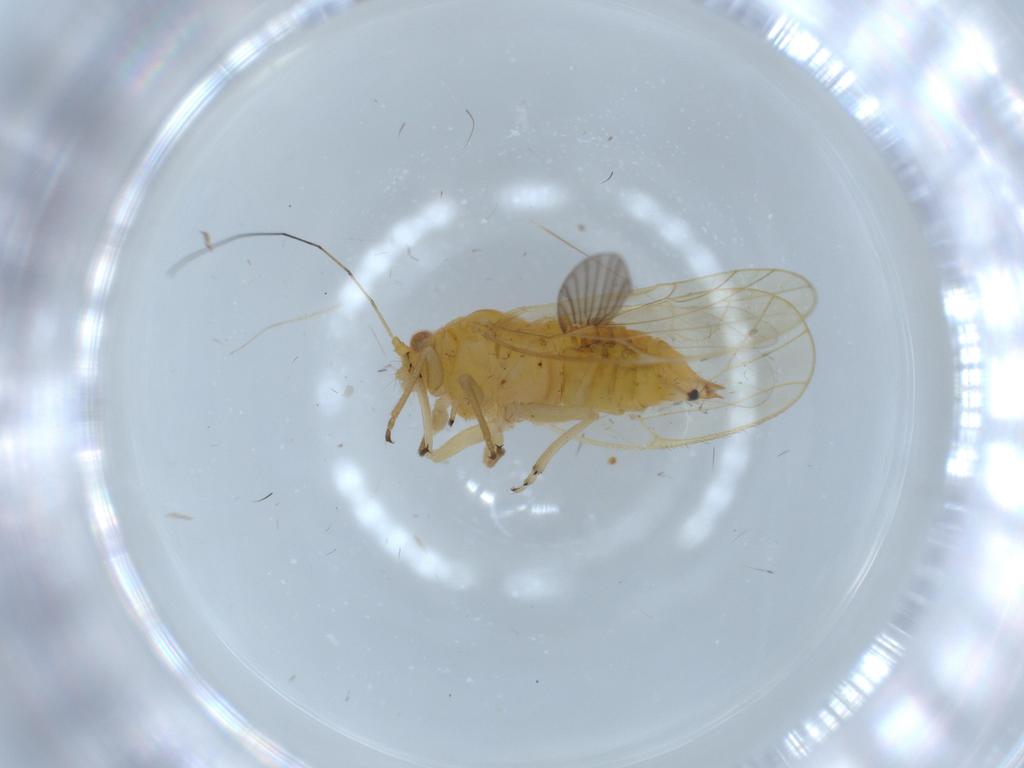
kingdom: Animalia
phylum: Arthropoda
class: Insecta
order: Hemiptera
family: Psyllidae
